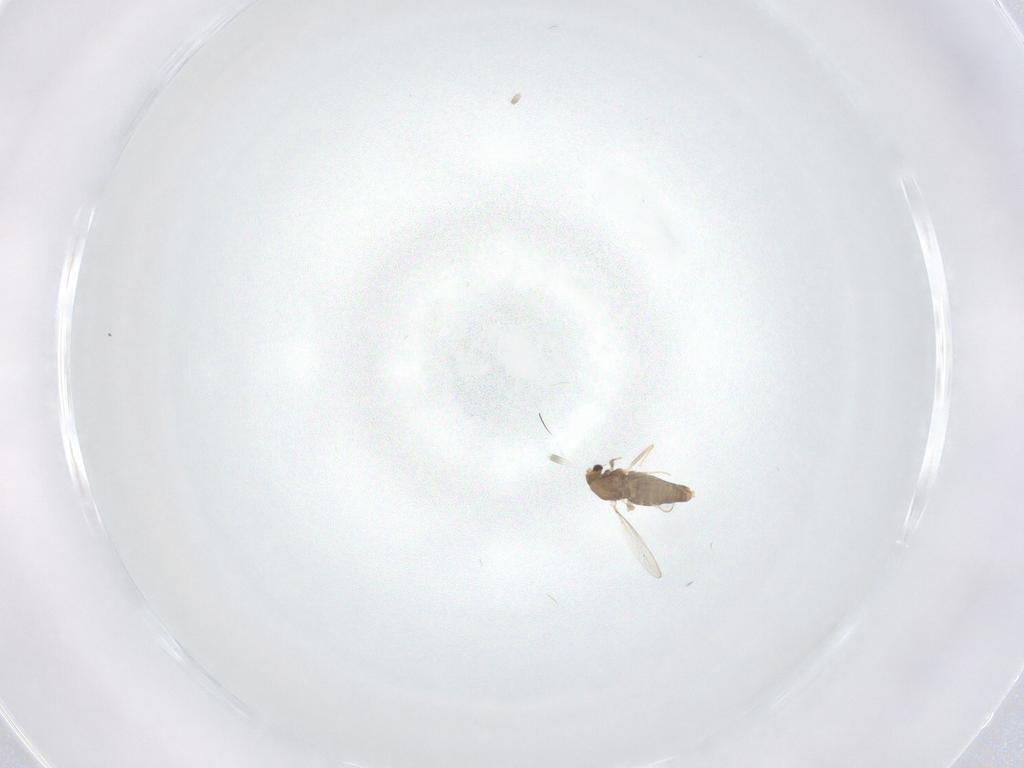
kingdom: Animalia
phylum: Arthropoda
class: Insecta
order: Diptera
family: Chironomidae
